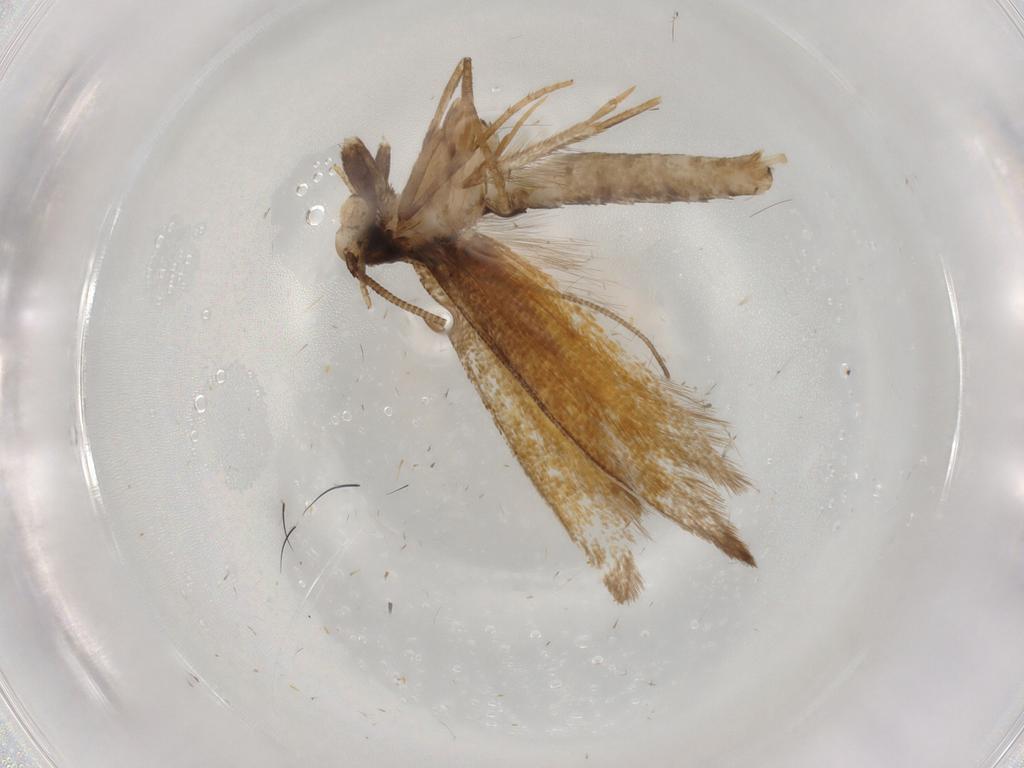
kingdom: Animalia
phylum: Arthropoda
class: Insecta
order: Lepidoptera
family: Tineidae
